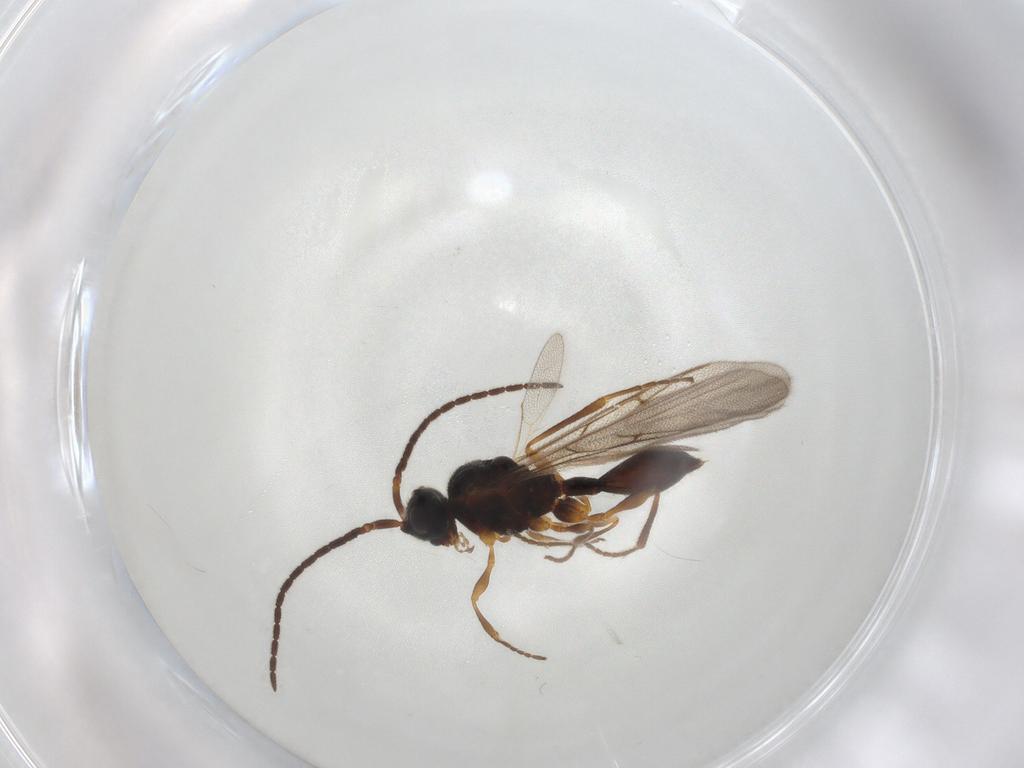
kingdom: Animalia
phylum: Arthropoda
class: Insecta
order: Hymenoptera
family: Diapriidae
